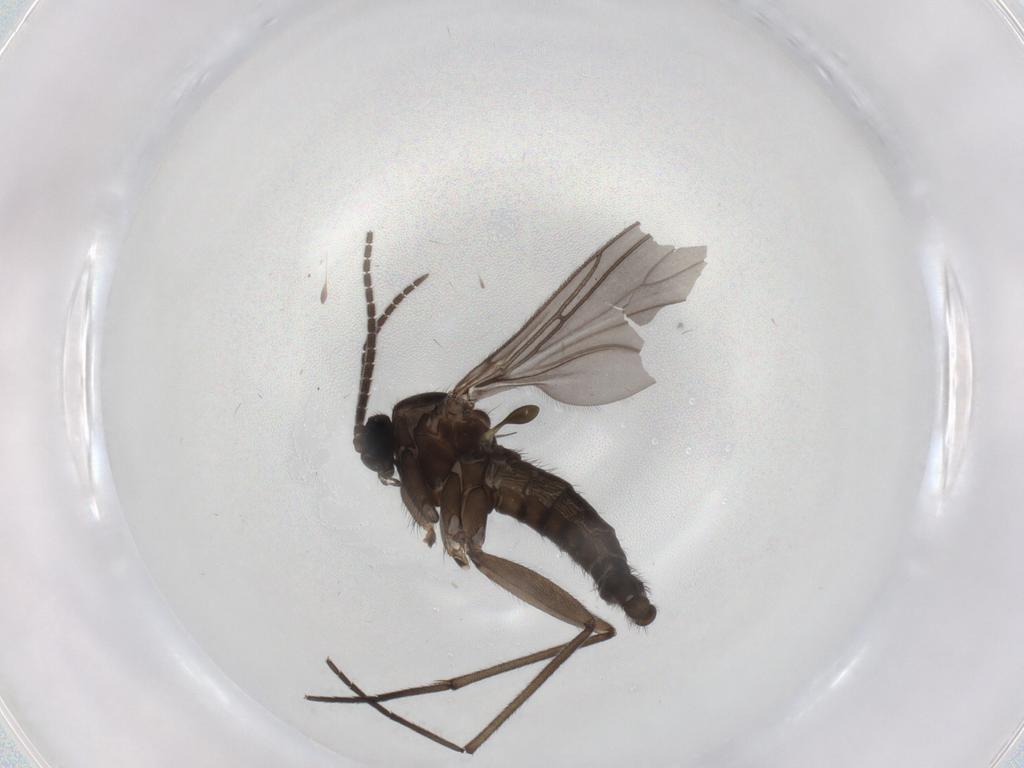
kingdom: Animalia
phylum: Arthropoda
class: Insecta
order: Diptera
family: Sciaridae
